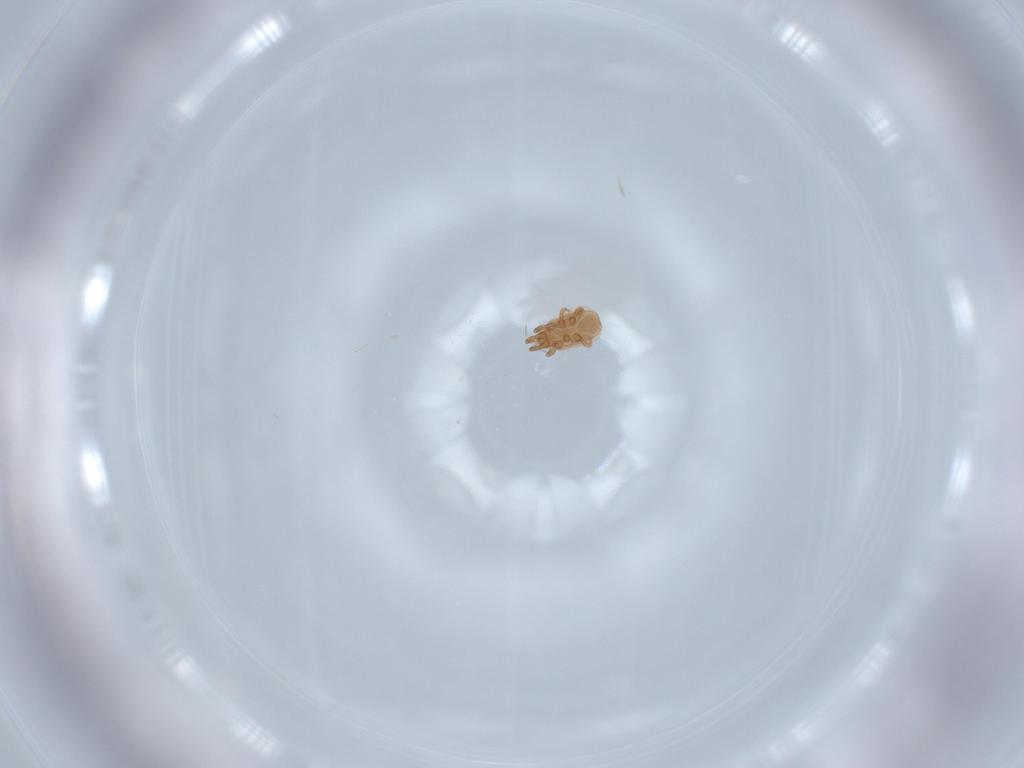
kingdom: Animalia
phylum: Arthropoda
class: Arachnida
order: Mesostigmata
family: Dinychidae
